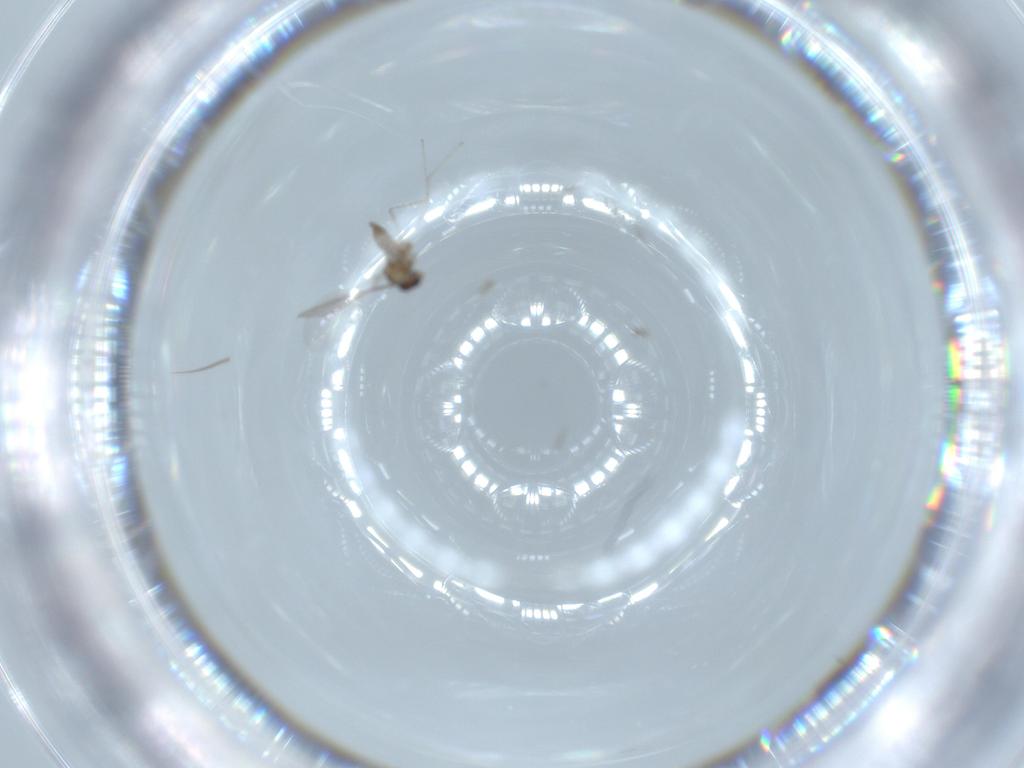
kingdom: Animalia
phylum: Arthropoda
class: Insecta
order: Diptera
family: Cecidomyiidae
